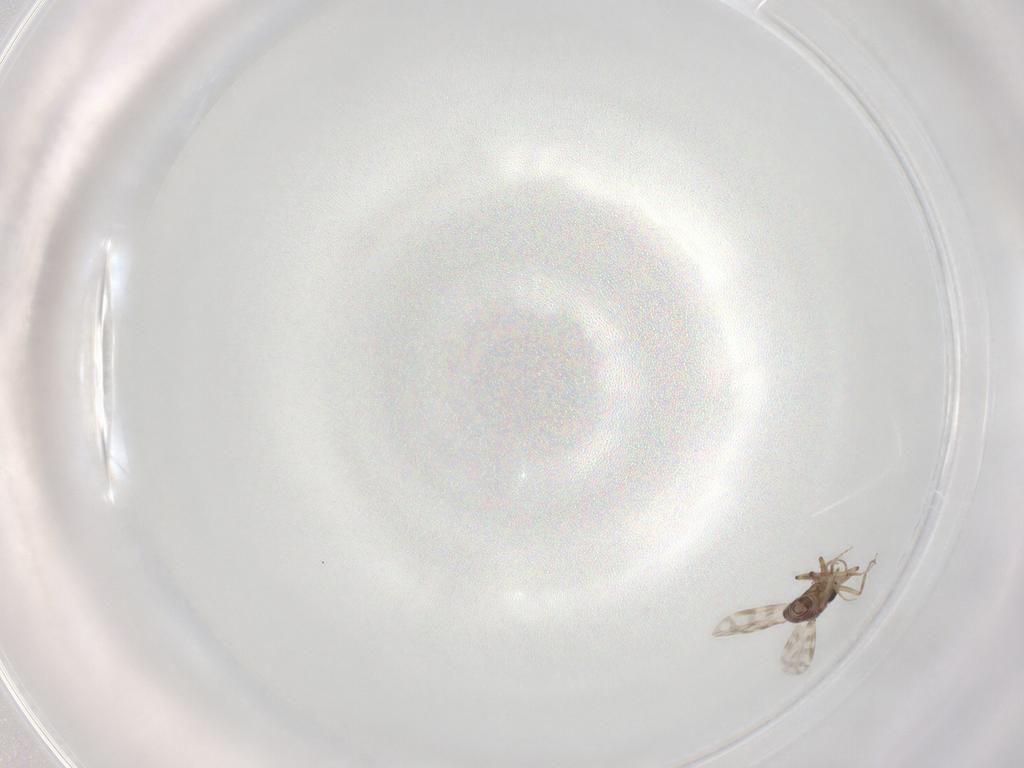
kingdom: Animalia
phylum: Arthropoda
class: Insecta
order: Diptera
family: Ceratopogonidae
